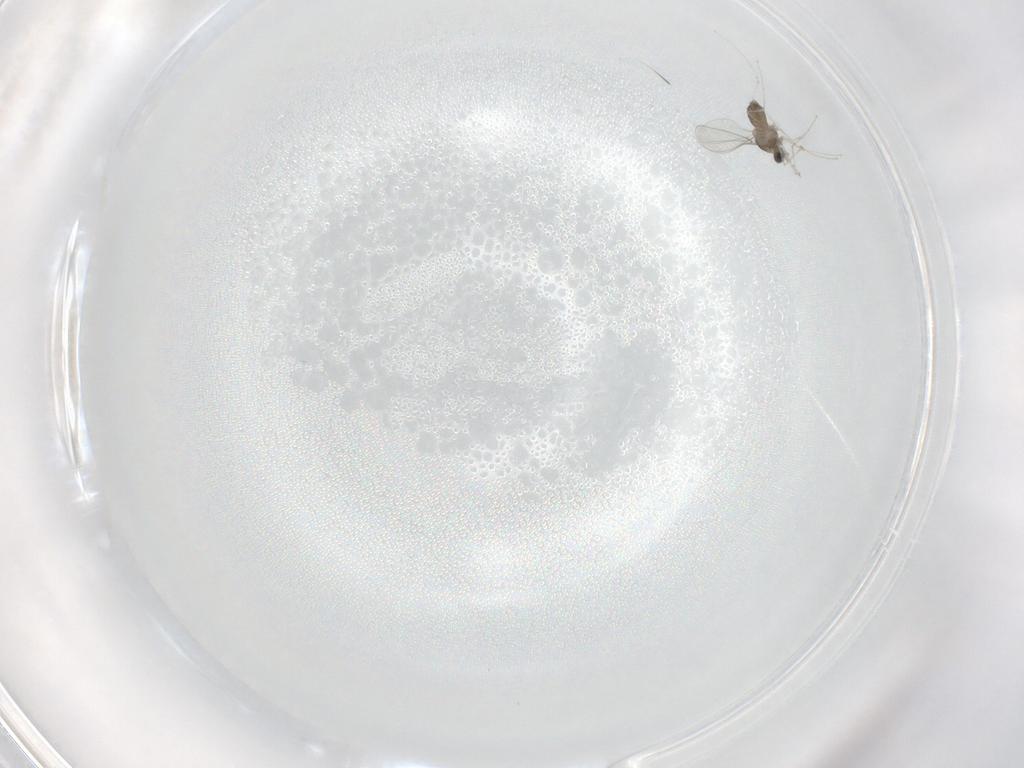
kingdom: Animalia
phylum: Arthropoda
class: Insecta
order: Diptera
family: Cecidomyiidae
